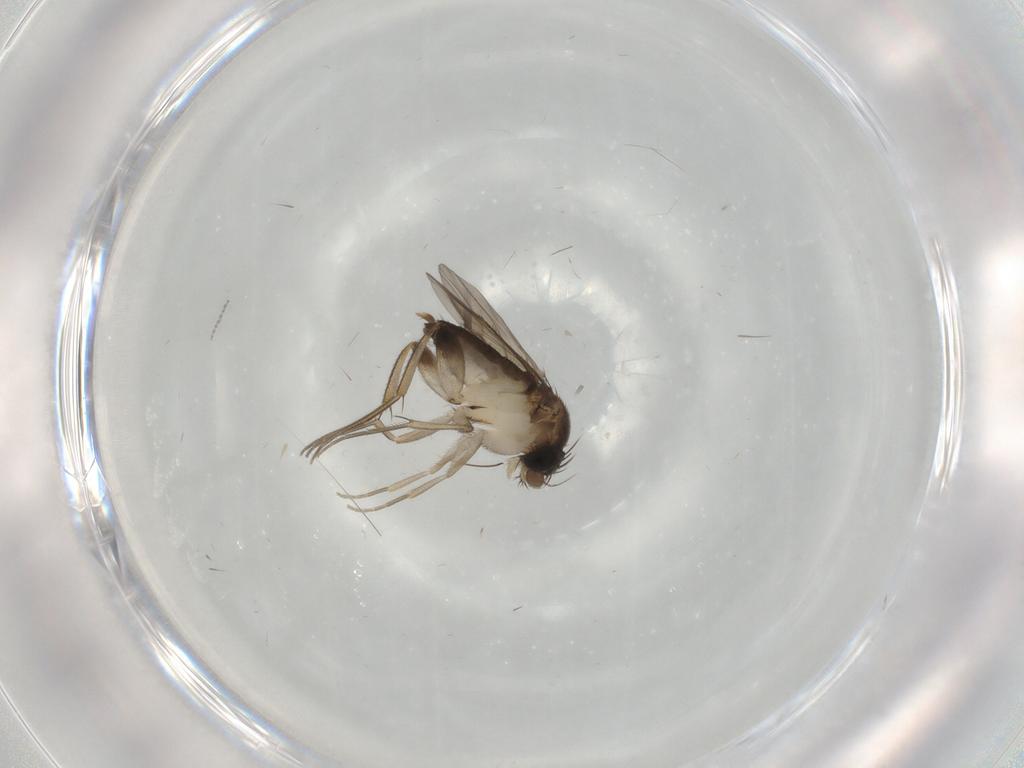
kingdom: Animalia
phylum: Arthropoda
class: Insecta
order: Diptera
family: Phoridae
